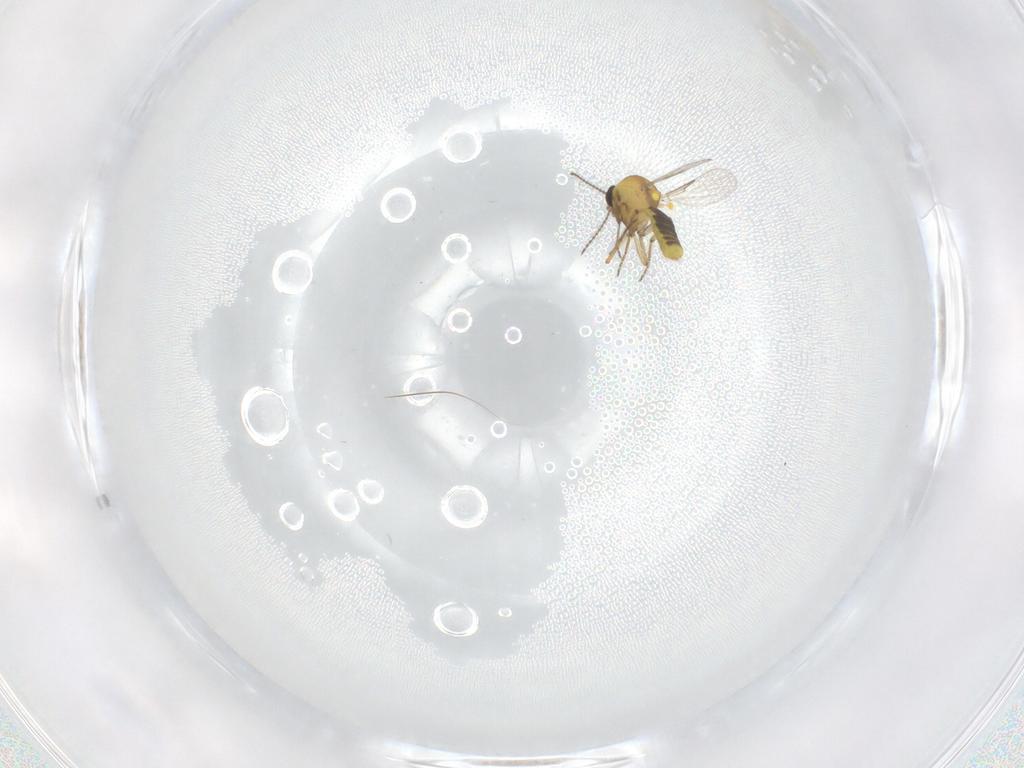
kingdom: Animalia
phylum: Arthropoda
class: Insecta
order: Diptera
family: Ceratopogonidae
